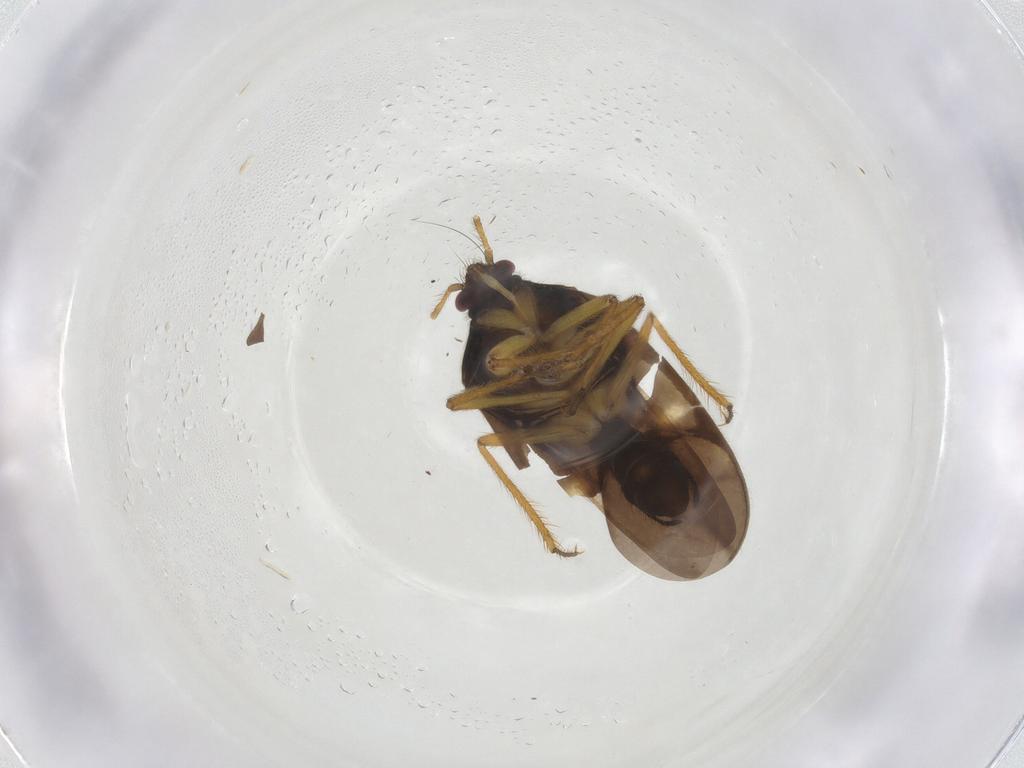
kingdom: Animalia
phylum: Arthropoda
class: Insecta
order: Hemiptera
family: Ceratocombidae
